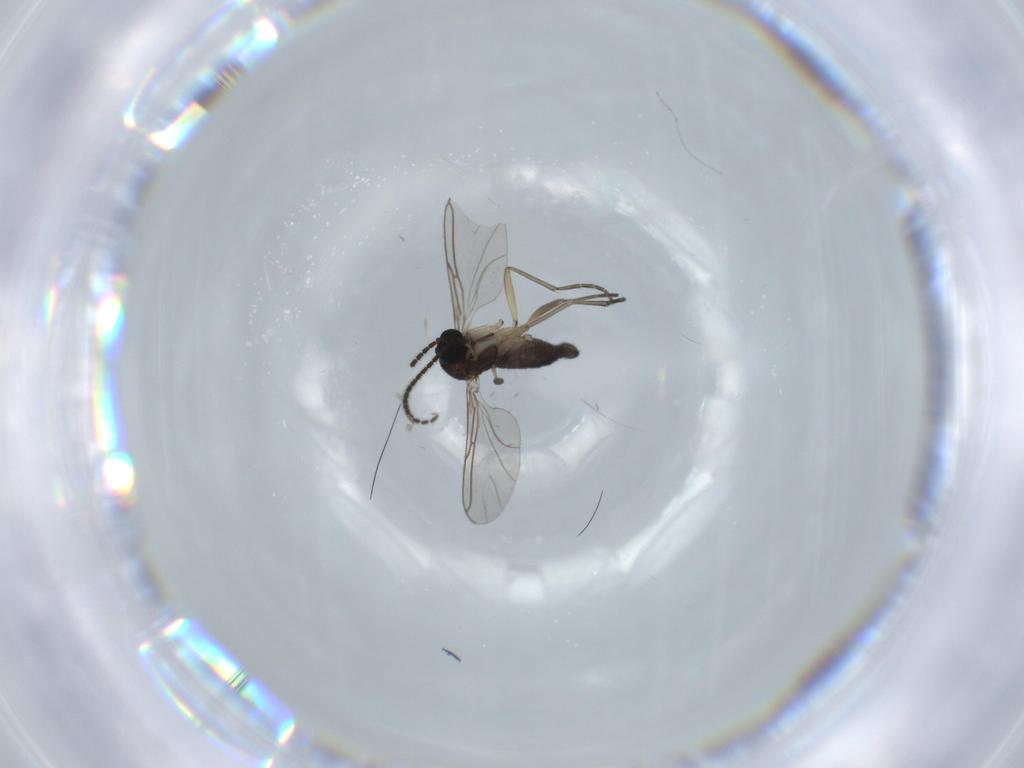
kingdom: Animalia
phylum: Arthropoda
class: Insecta
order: Diptera
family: Sciaridae
